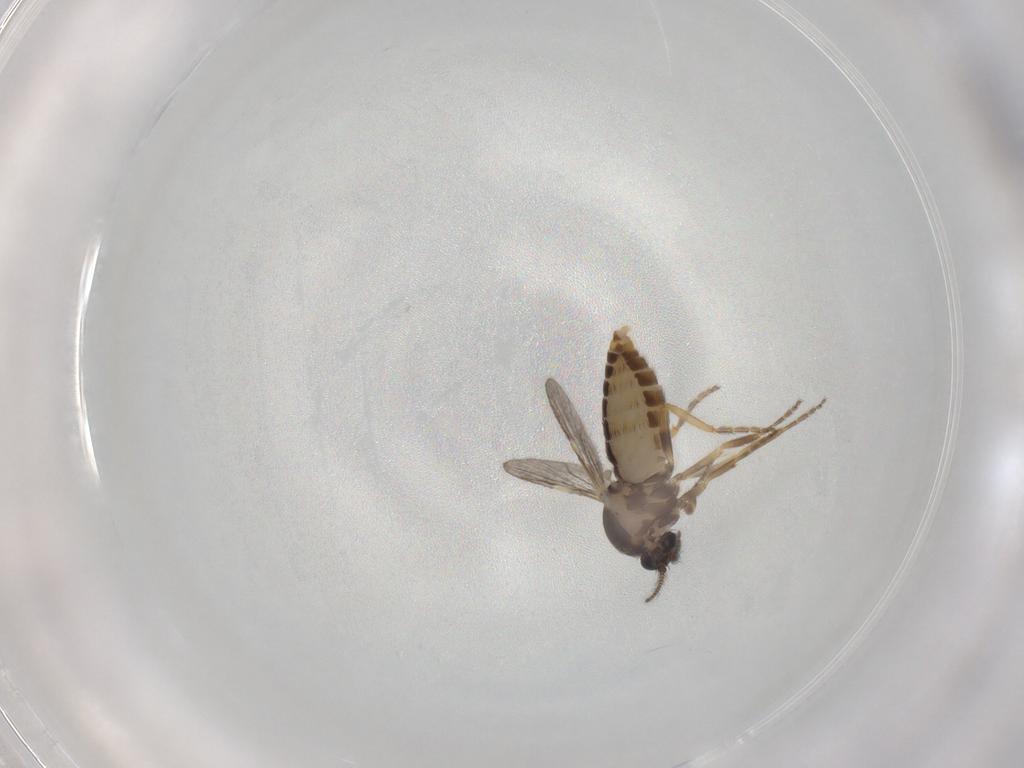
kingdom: Animalia
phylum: Arthropoda
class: Insecta
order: Diptera
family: Ceratopogonidae
